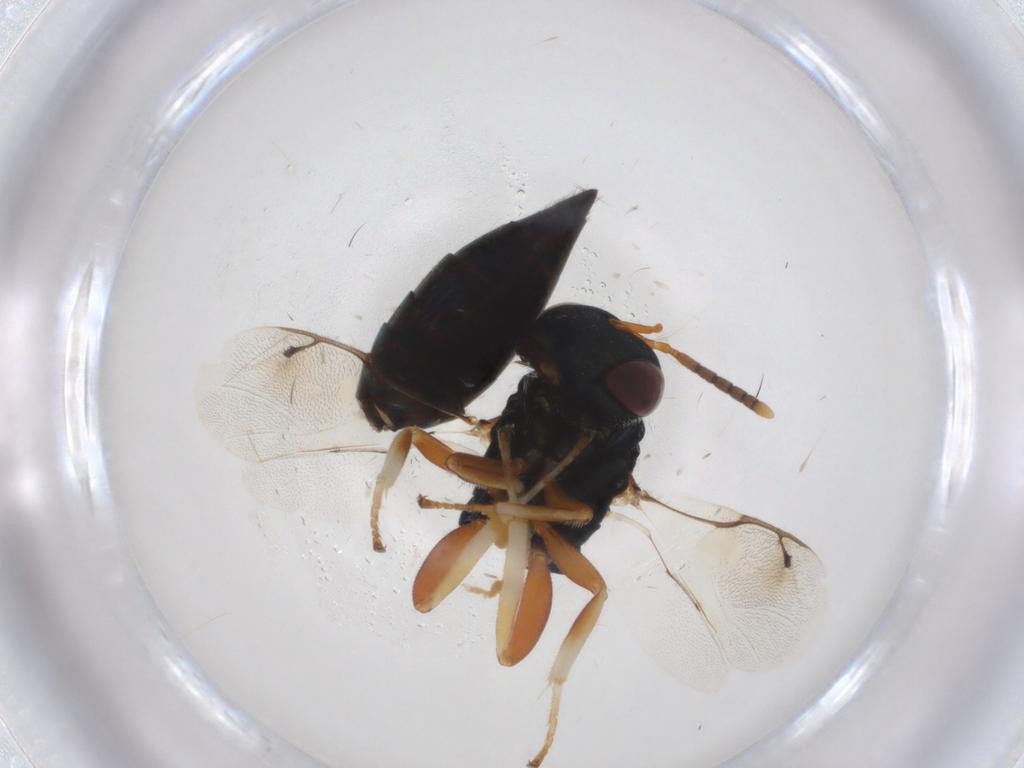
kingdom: Animalia
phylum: Arthropoda
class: Insecta
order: Hymenoptera
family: Pteromalidae
